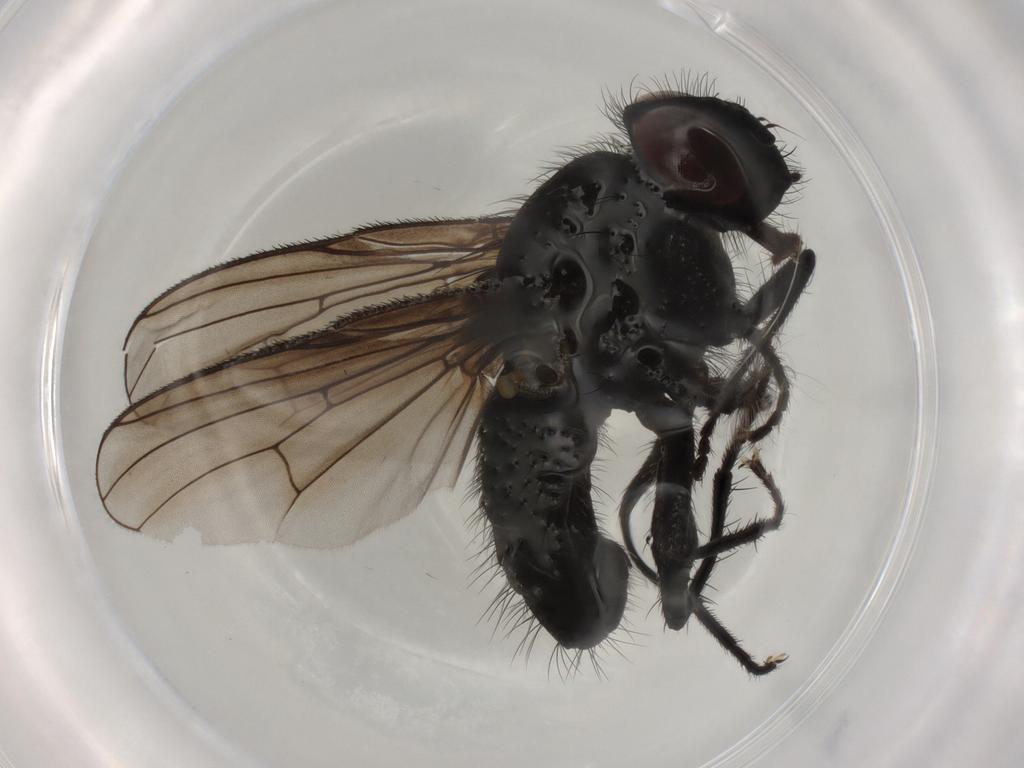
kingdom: Animalia
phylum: Arthropoda
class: Insecta
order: Diptera
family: Muscidae
